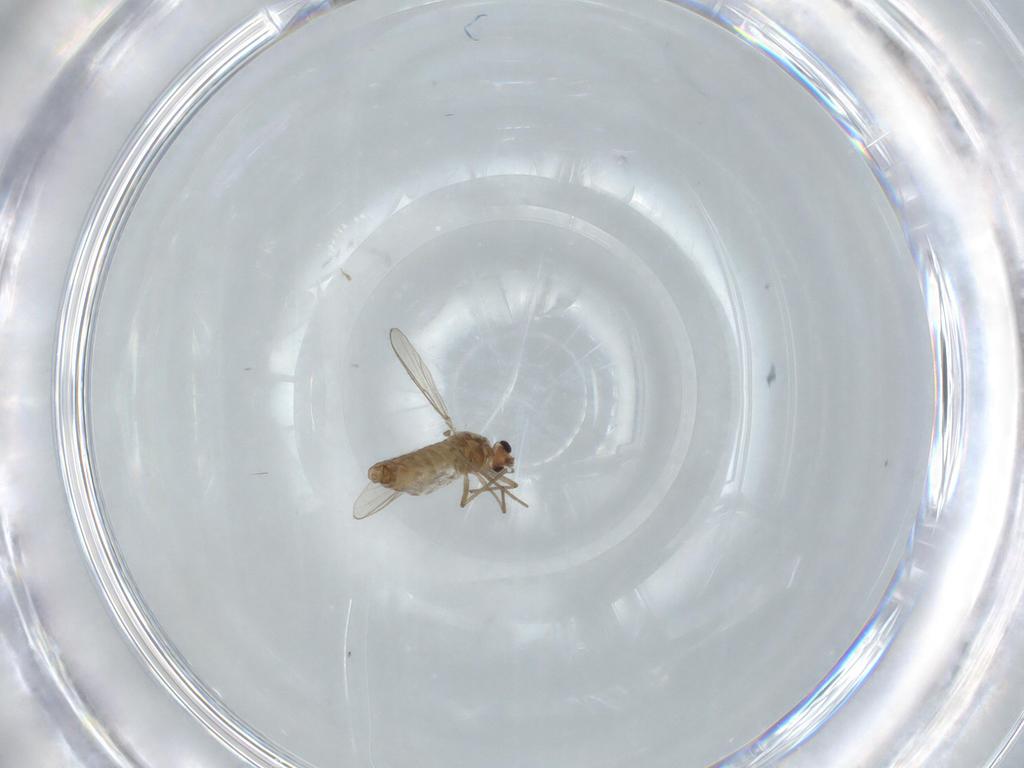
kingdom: Animalia
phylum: Arthropoda
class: Insecta
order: Diptera
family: Chironomidae
